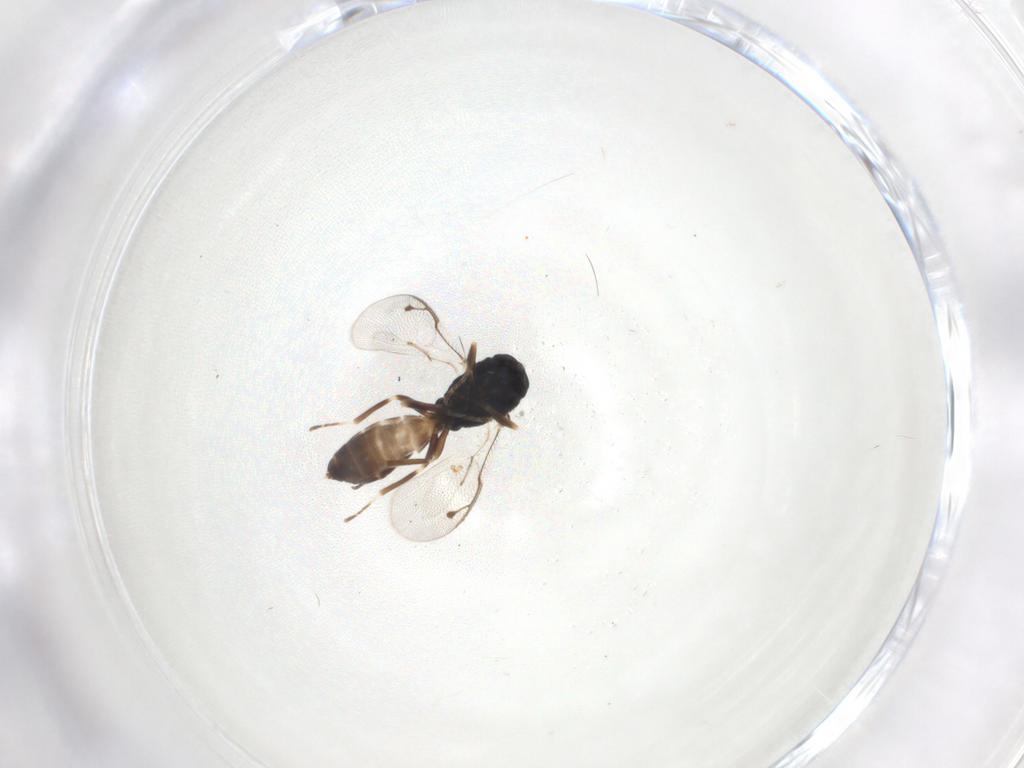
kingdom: Animalia
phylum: Arthropoda
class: Insecta
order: Hymenoptera
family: Pteromalidae
